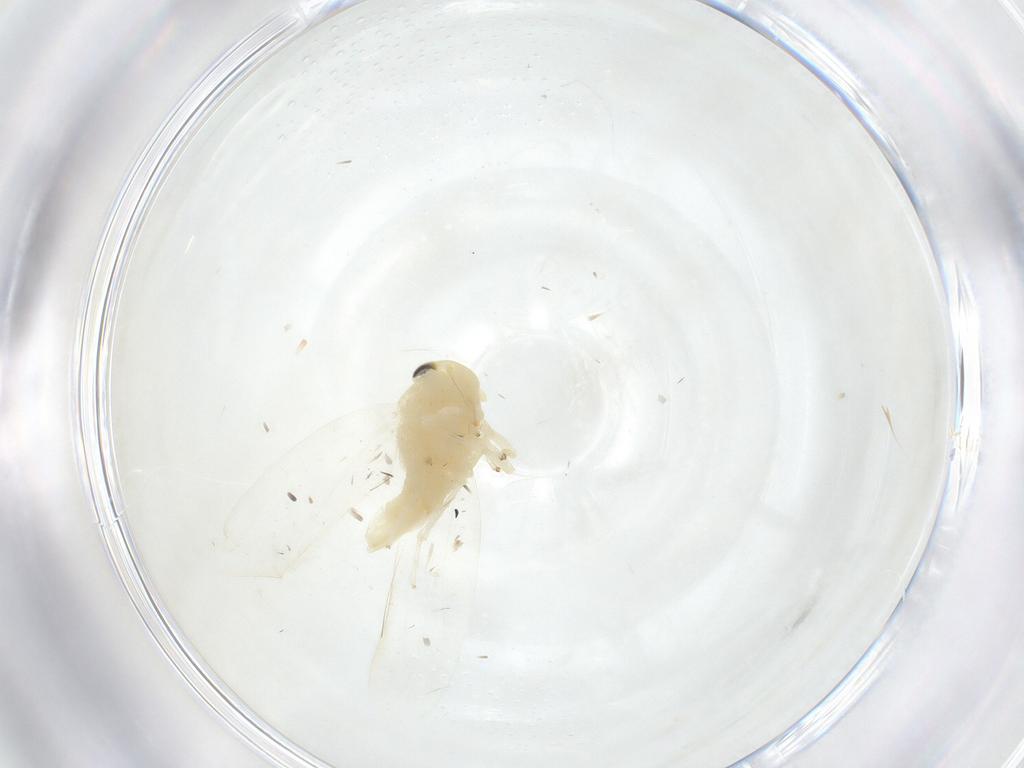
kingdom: Animalia
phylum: Arthropoda
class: Insecta
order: Hemiptera
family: Cicadellidae
